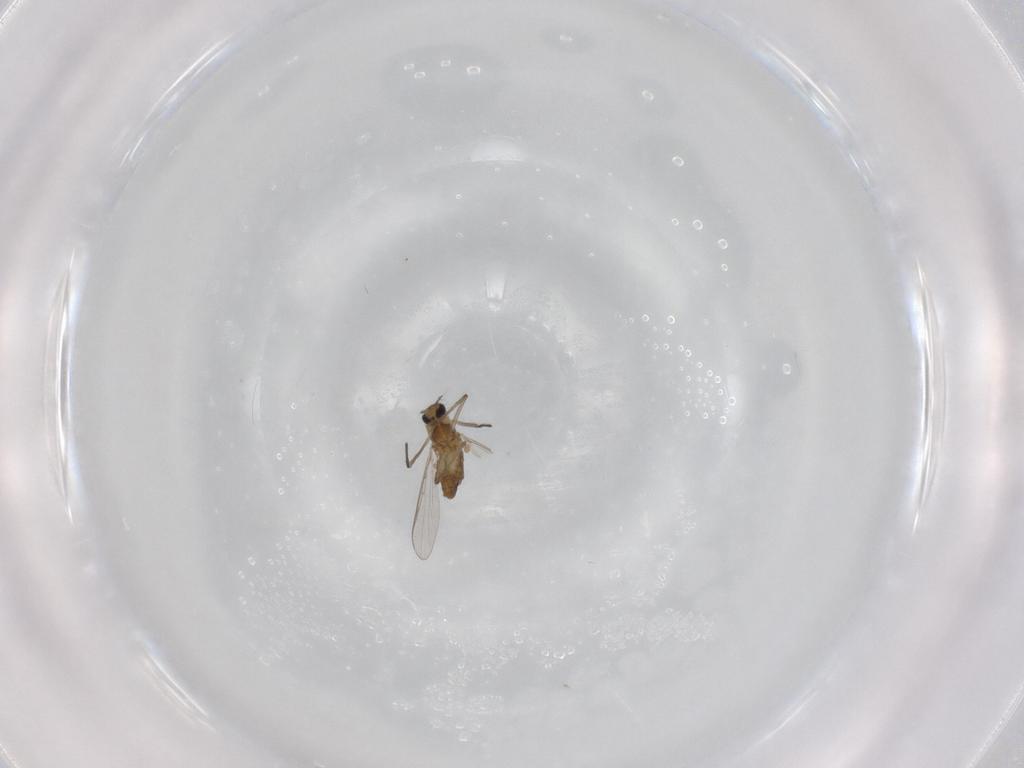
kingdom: Animalia
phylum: Arthropoda
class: Insecta
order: Diptera
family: Chironomidae
